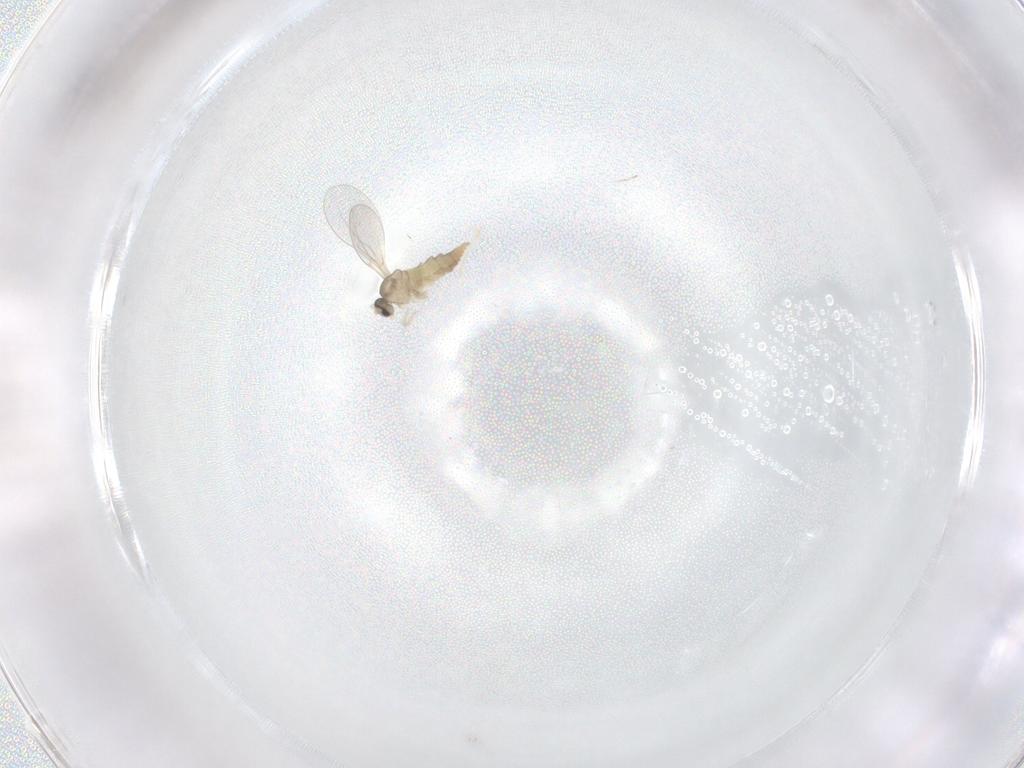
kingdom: Animalia
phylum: Arthropoda
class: Insecta
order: Diptera
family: Cecidomyiidae
